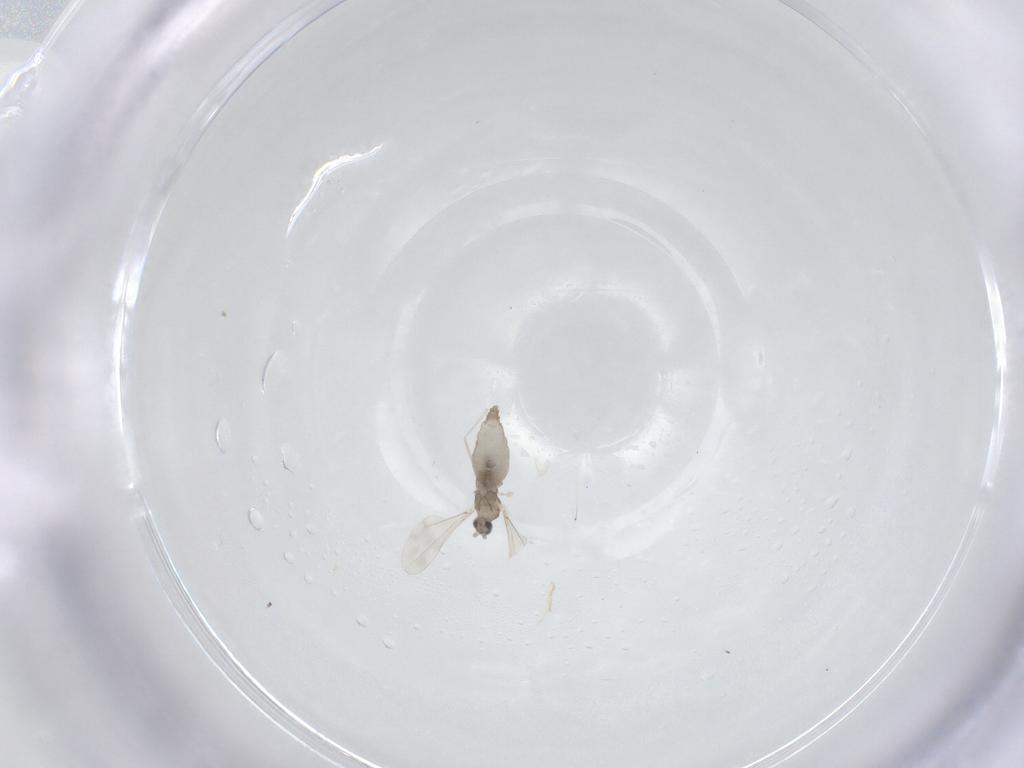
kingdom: Animalia
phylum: Arthropoda
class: Insecta
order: Diptera
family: Cecidomyiidae
